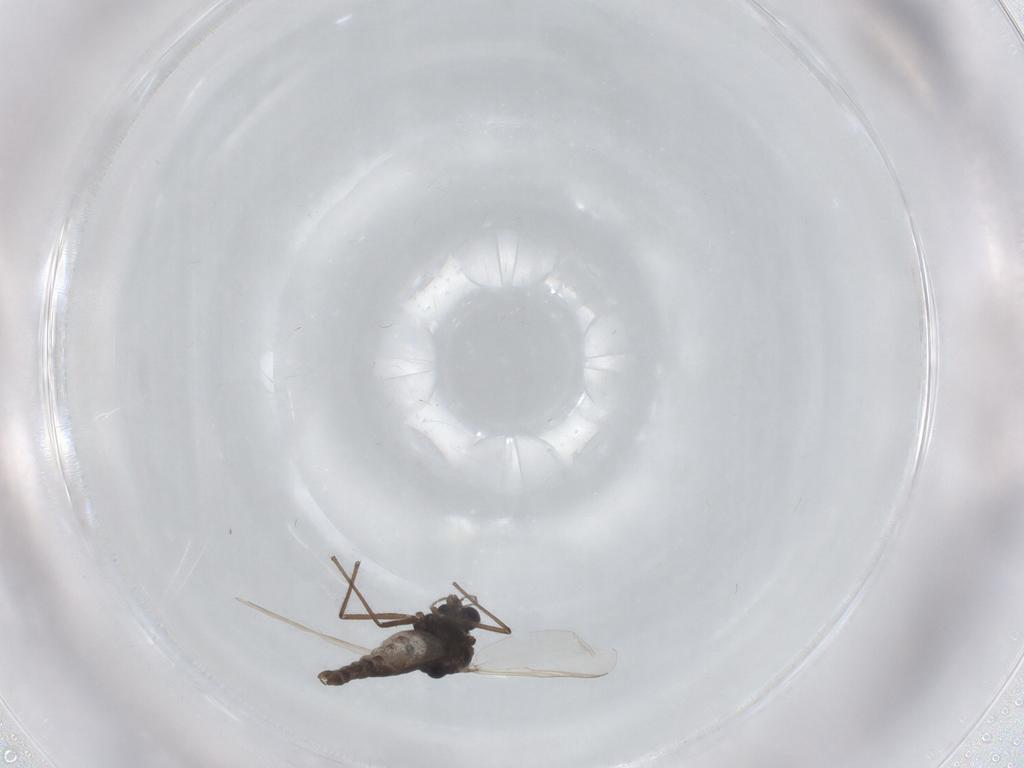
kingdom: Animalia
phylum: Arthropoda
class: Insecta
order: Diptera
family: Chironomidae
